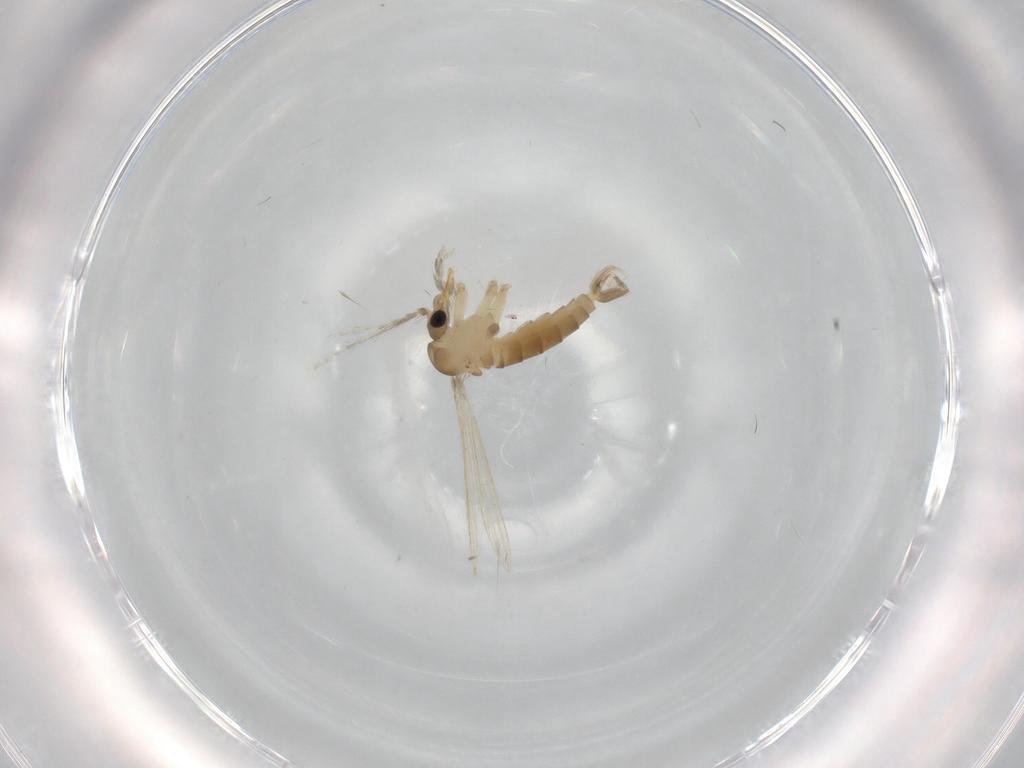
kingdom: Animalia
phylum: Arthropoda
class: Insecta
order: Diptera
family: Psychodidae
